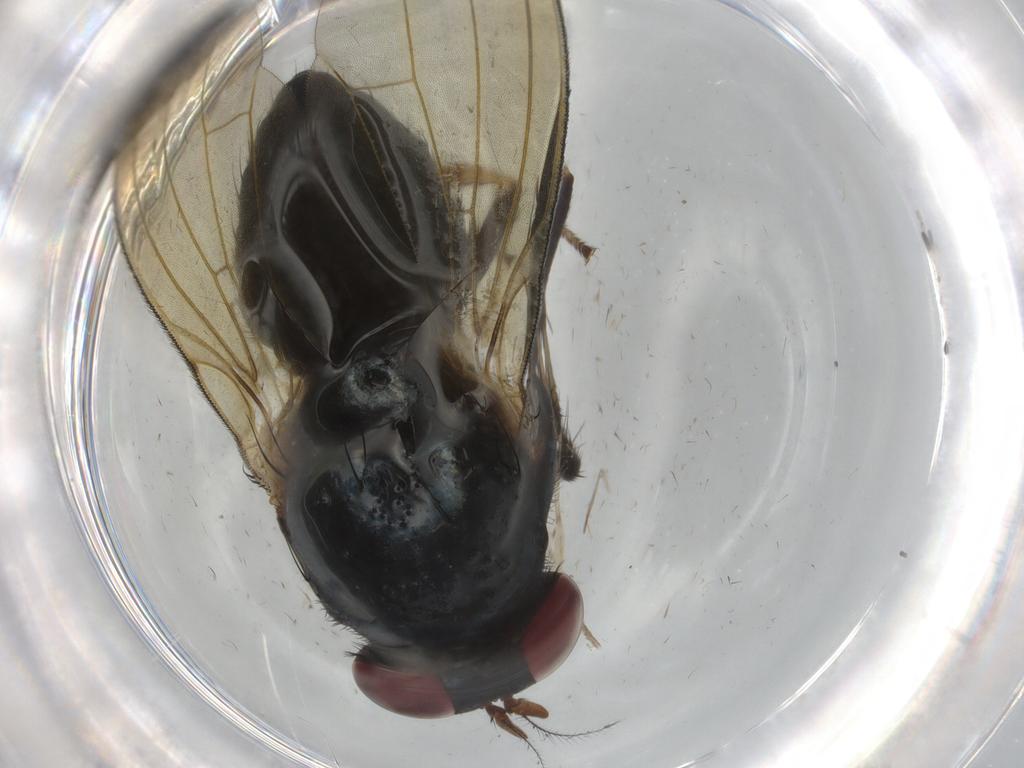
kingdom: Animalia
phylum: Arthropoda
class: Insecta
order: Diptera
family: Lauxaniidae
